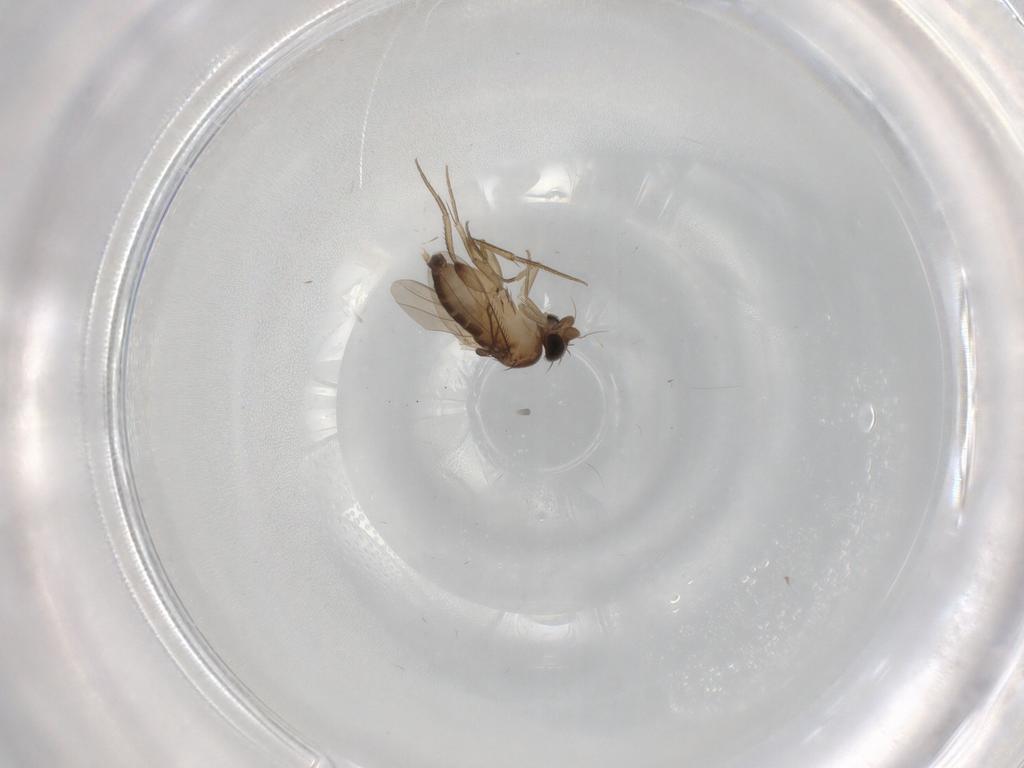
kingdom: Animalia
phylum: Arthropoda
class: Insecta
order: Diptera
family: Phoridae
